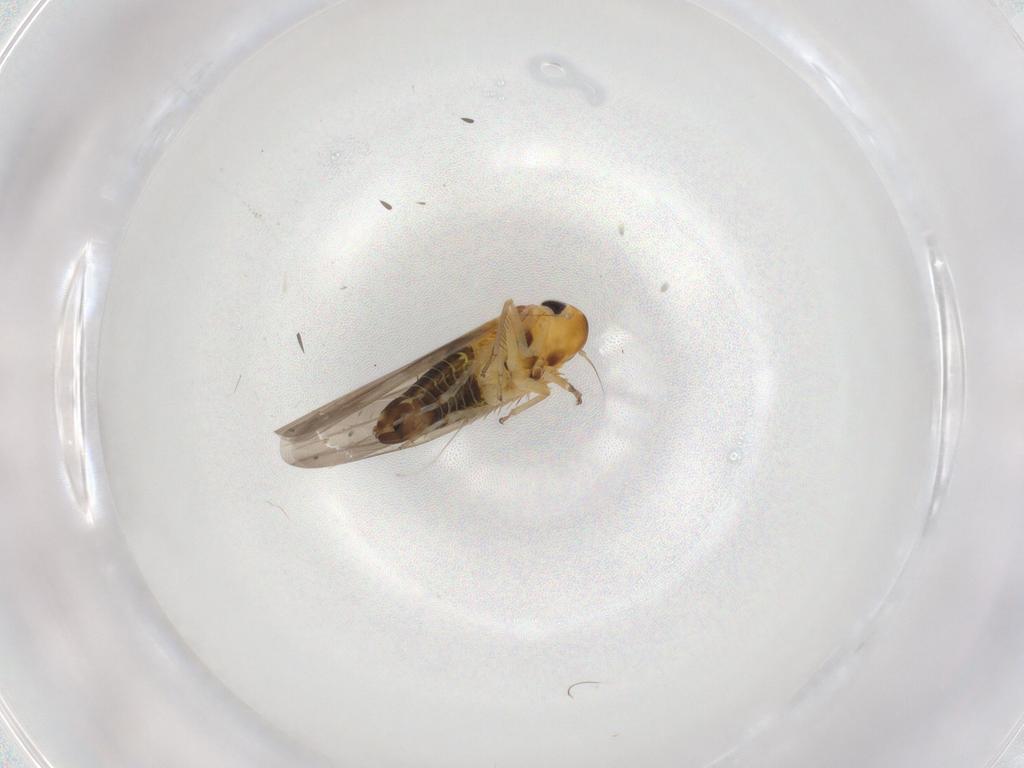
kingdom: Animalia
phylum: Arthropoda
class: Insecta
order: Hemiptera
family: Cicadellidae
